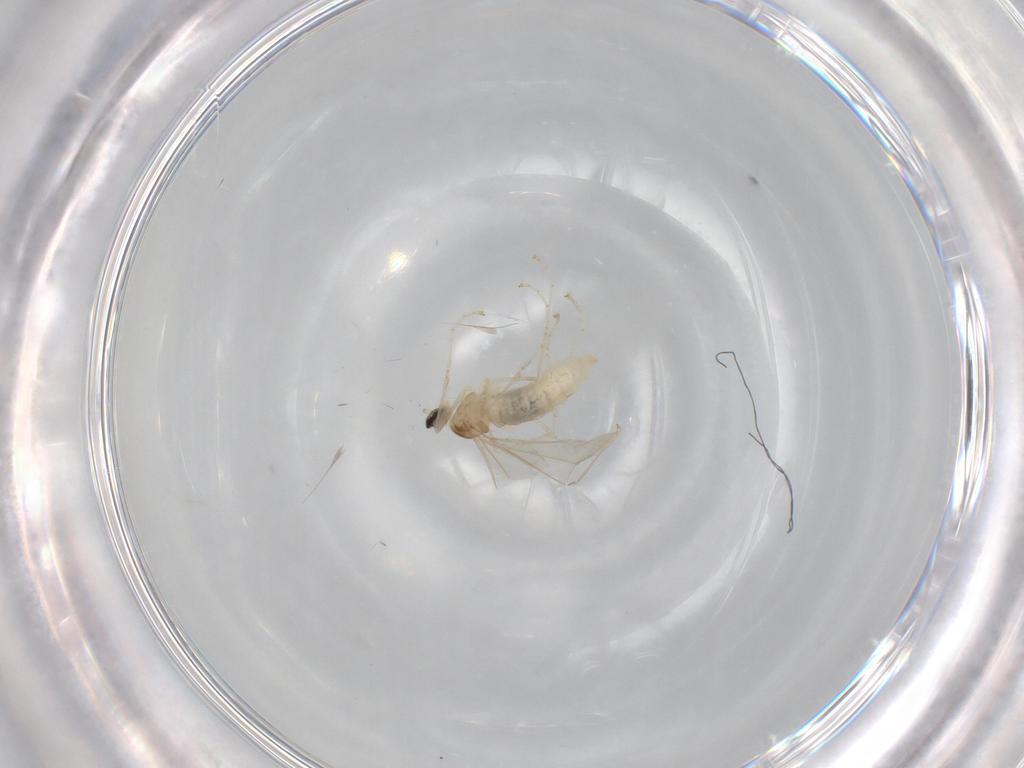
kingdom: Animalia
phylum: Arthropoda
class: Insecta
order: Diptera
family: Cecidomyiidae
